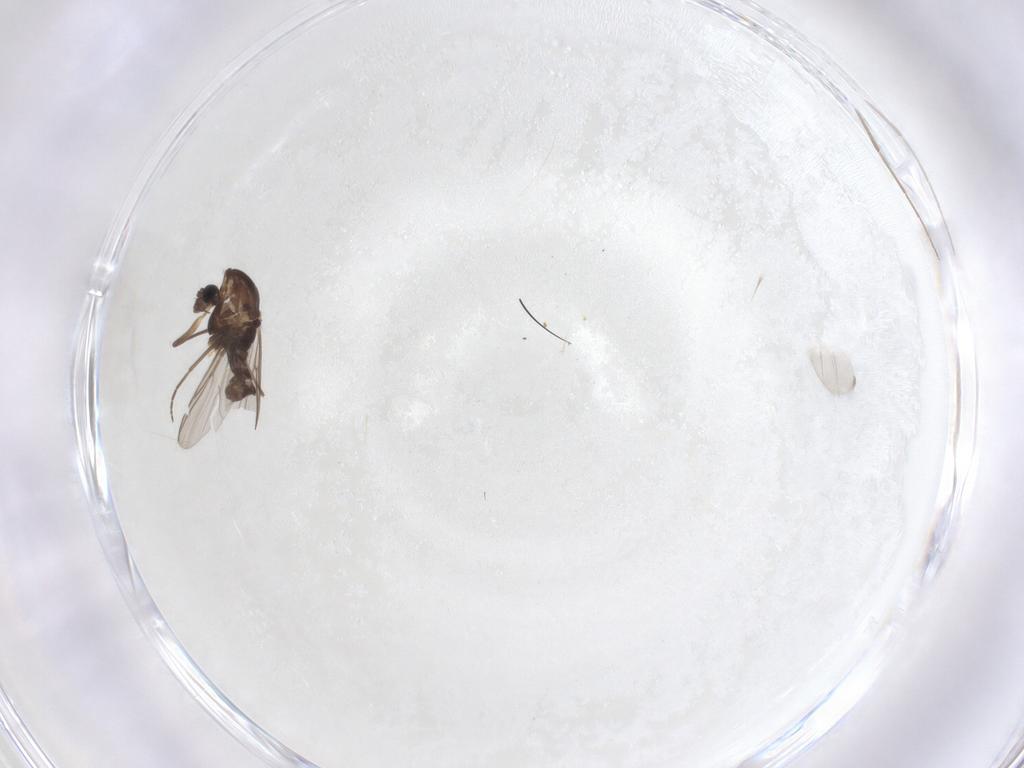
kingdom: Animalia
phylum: Arthropoda
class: Insecta
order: Diptera
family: Chironomidae
